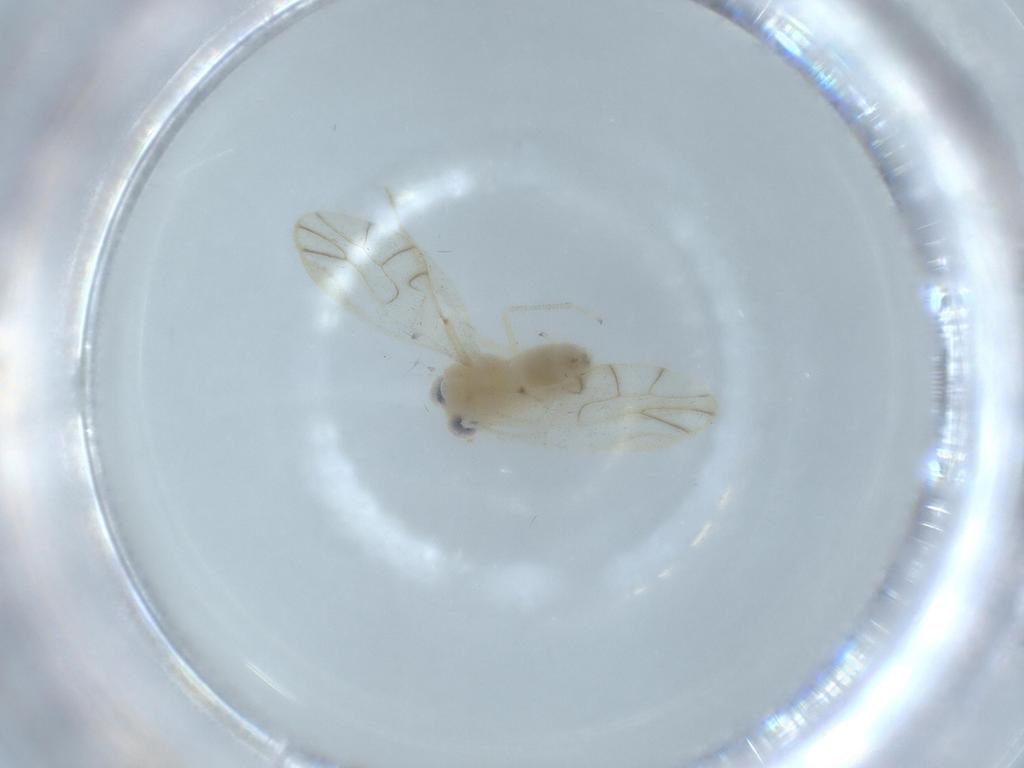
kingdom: Animalia
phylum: Arthropoda
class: Insecta
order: Psocodea
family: Caeciliusidae
